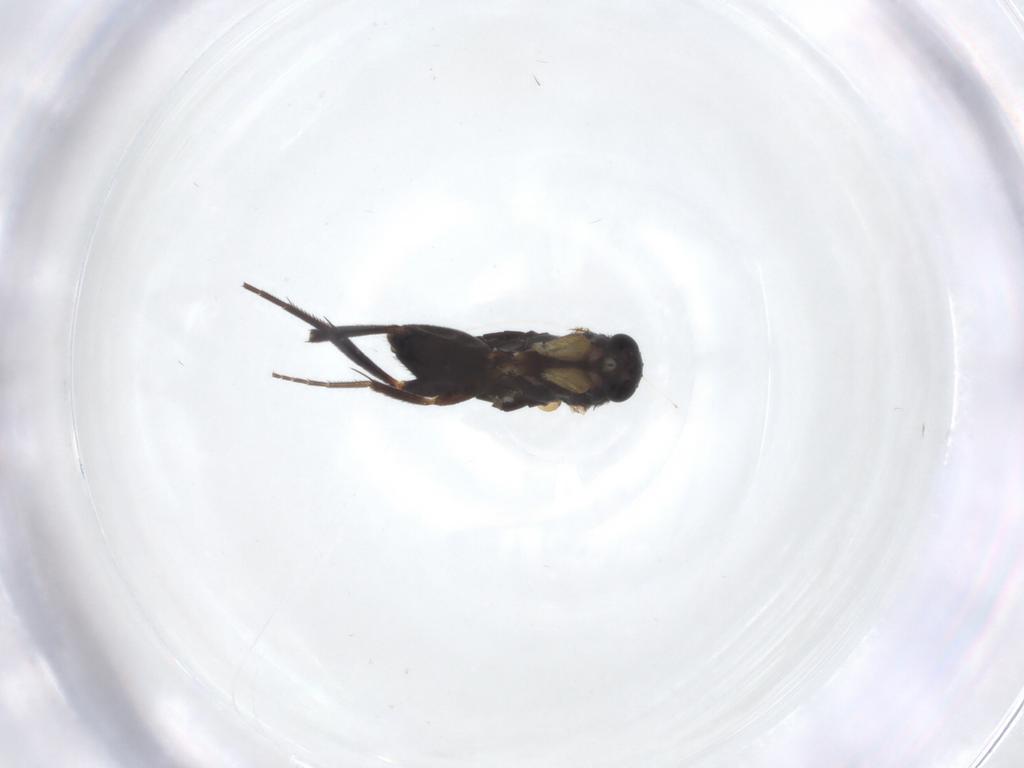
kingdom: Animalia
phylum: Arthropoda
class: Insecta
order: Diptera
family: Phoridae
